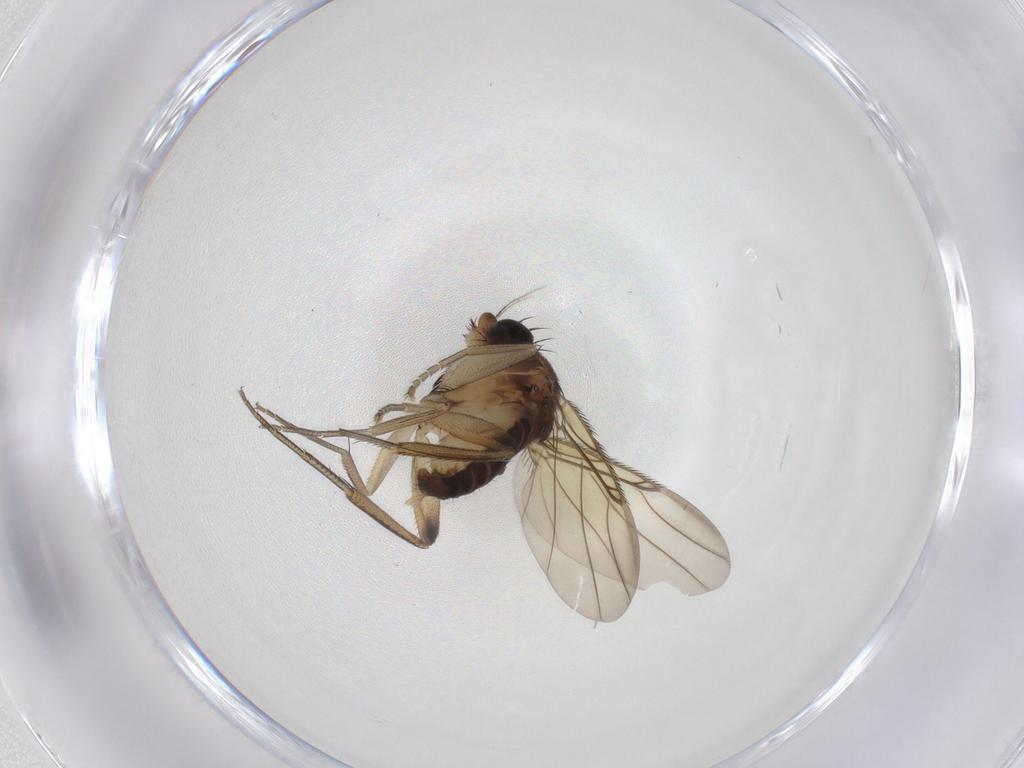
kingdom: Animalia
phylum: Arthropoda
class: Insecta
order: Diptera
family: Phoridae
